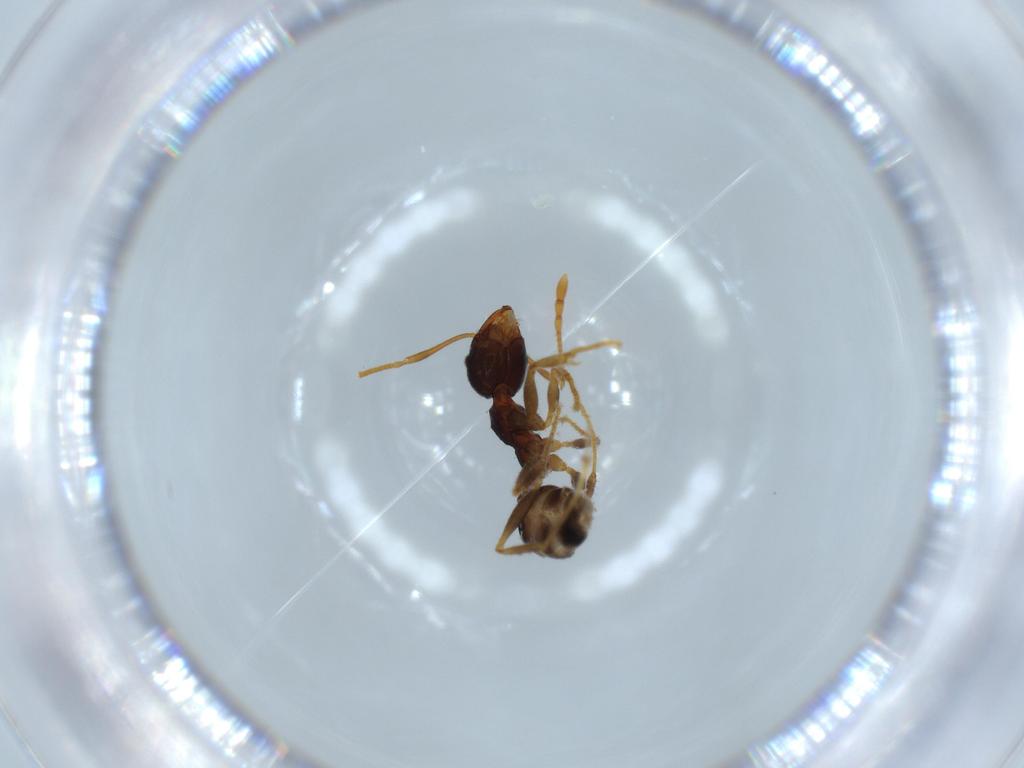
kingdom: Animalia
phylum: Arthropoda
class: Insecta
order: Hymenoptera
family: Formicidae
